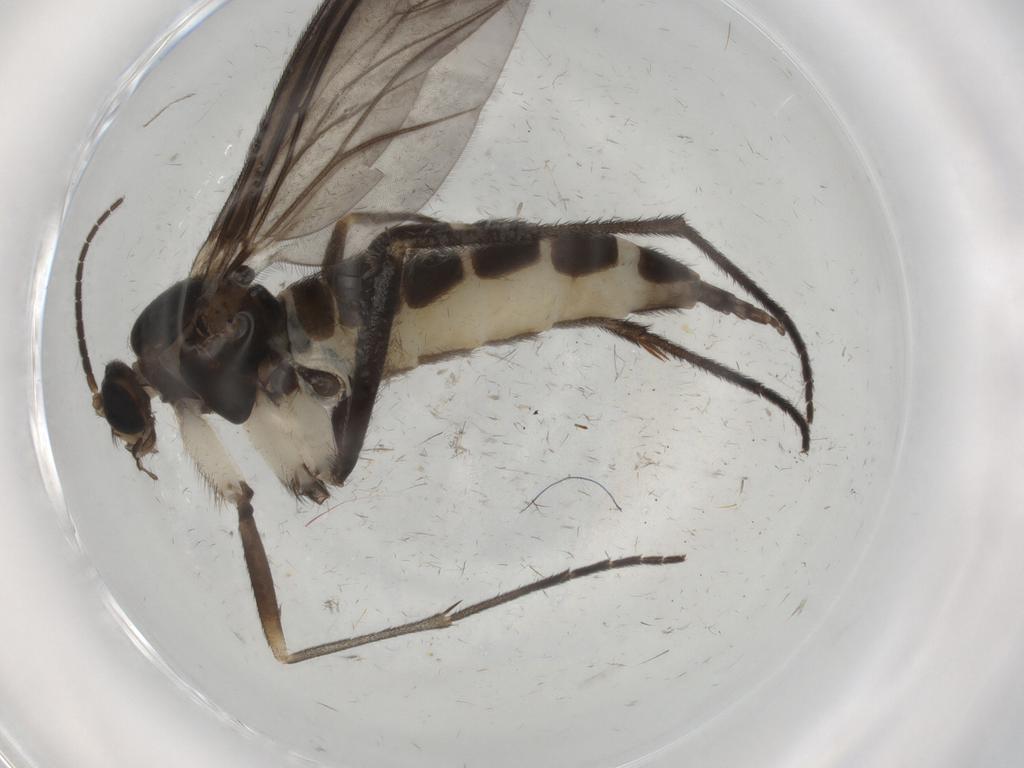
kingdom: Animalia
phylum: Arthropoda
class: Insecta
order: Diptera
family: Sciaridae
